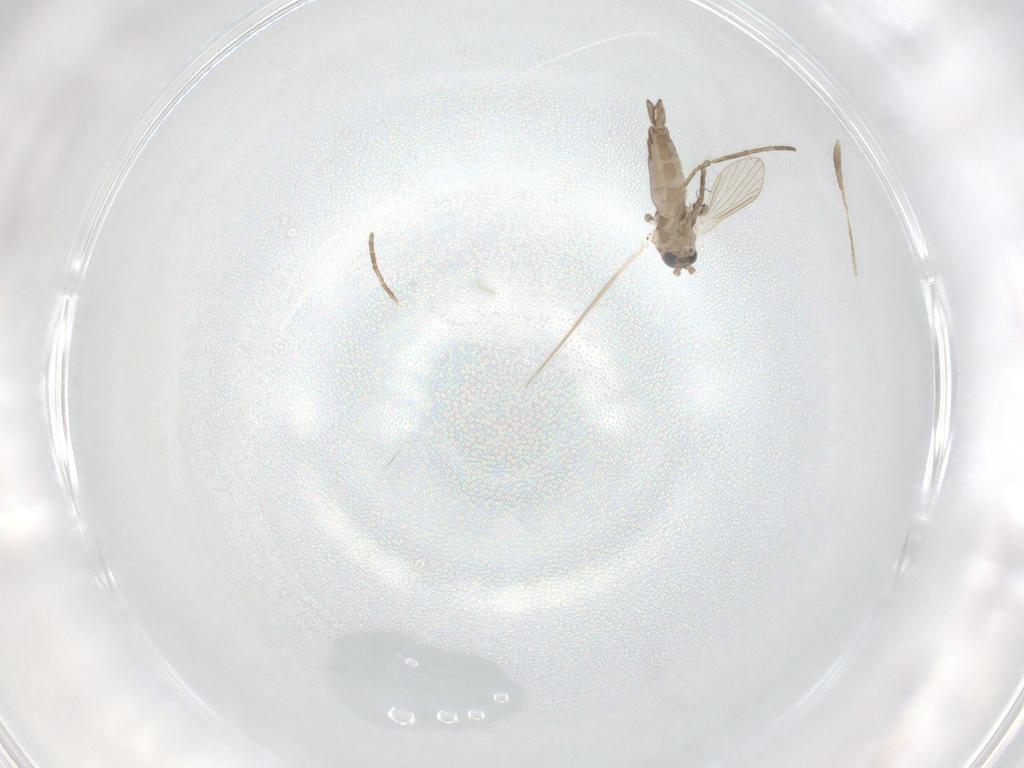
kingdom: Animalia
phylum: Arthropoda
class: Insecta
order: Diptera
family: Psychodidae
